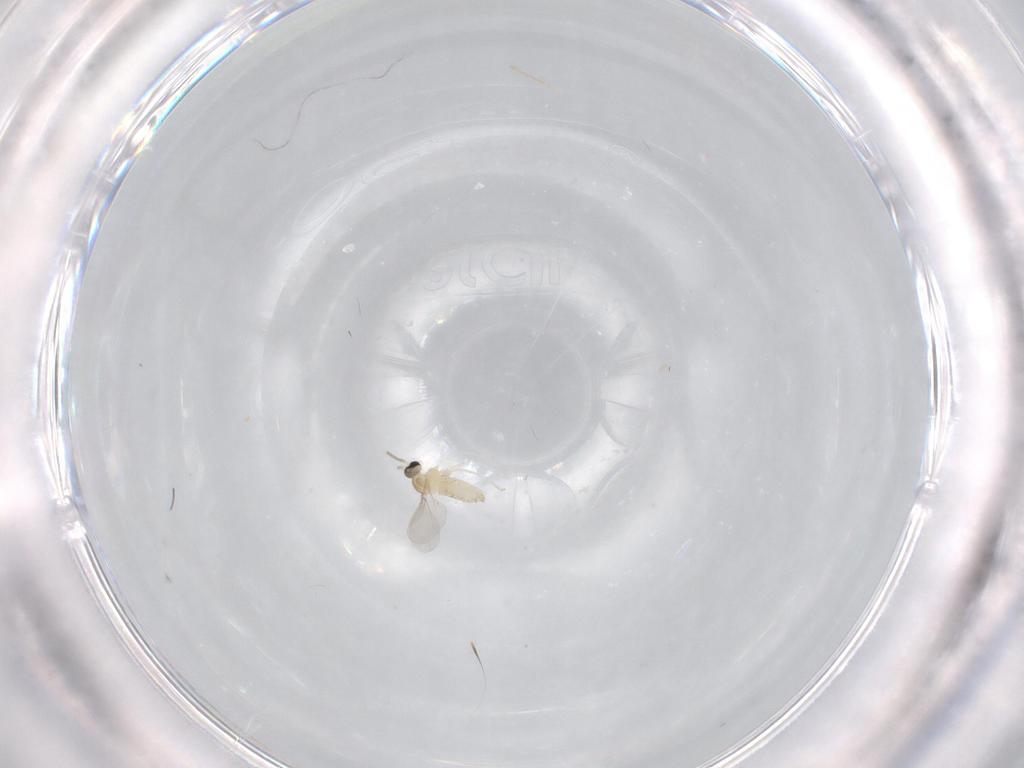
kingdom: Animalia
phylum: Arthropoda
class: Insecta
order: Diptera
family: Cecidomyiidae
